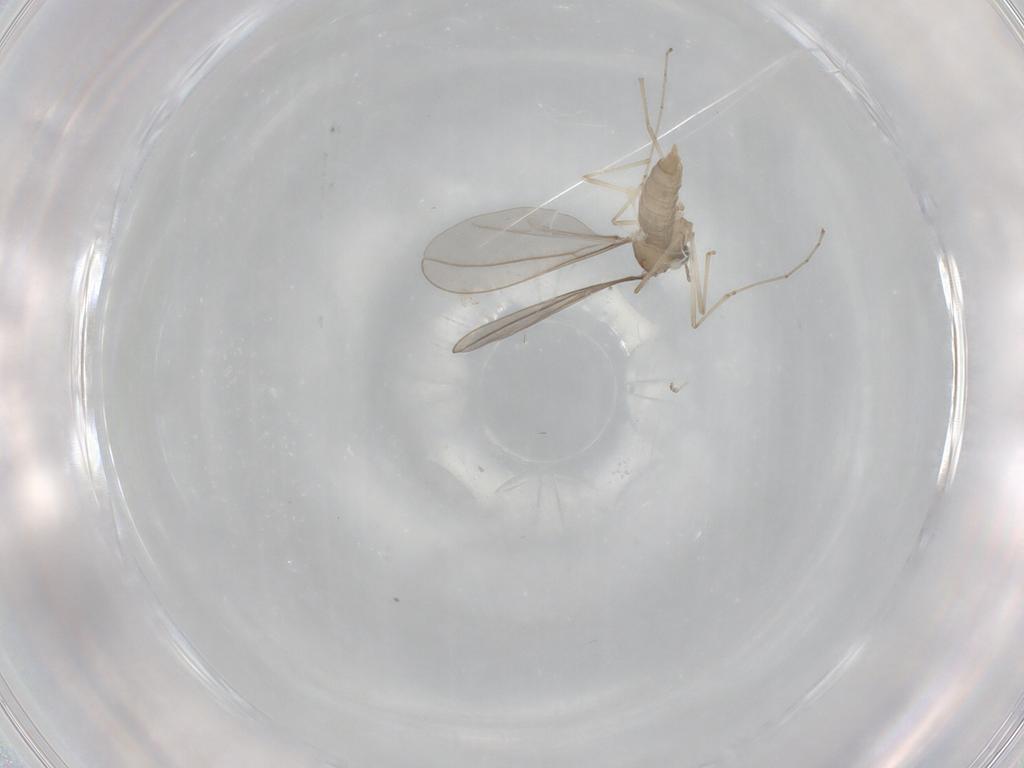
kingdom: Animalia
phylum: Arthropoda
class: Insecta
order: Diptera
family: Cecidomyiidae
